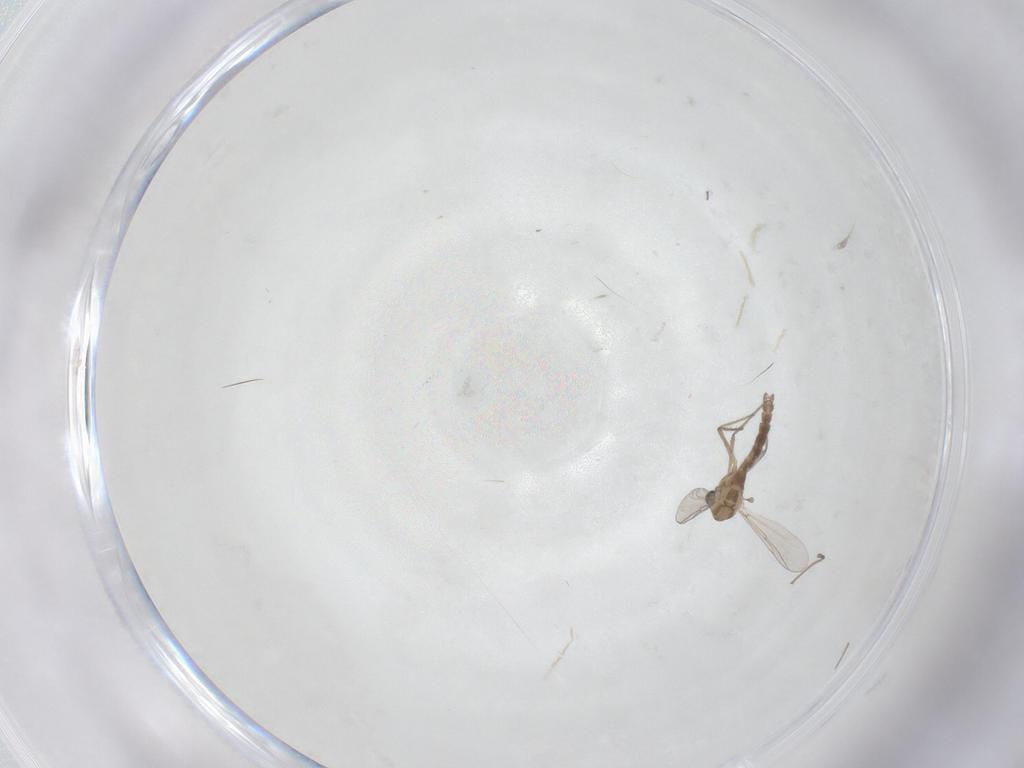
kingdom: Animalia
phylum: Arthropoda
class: Insecta
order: Diptera
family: Chironomidae
